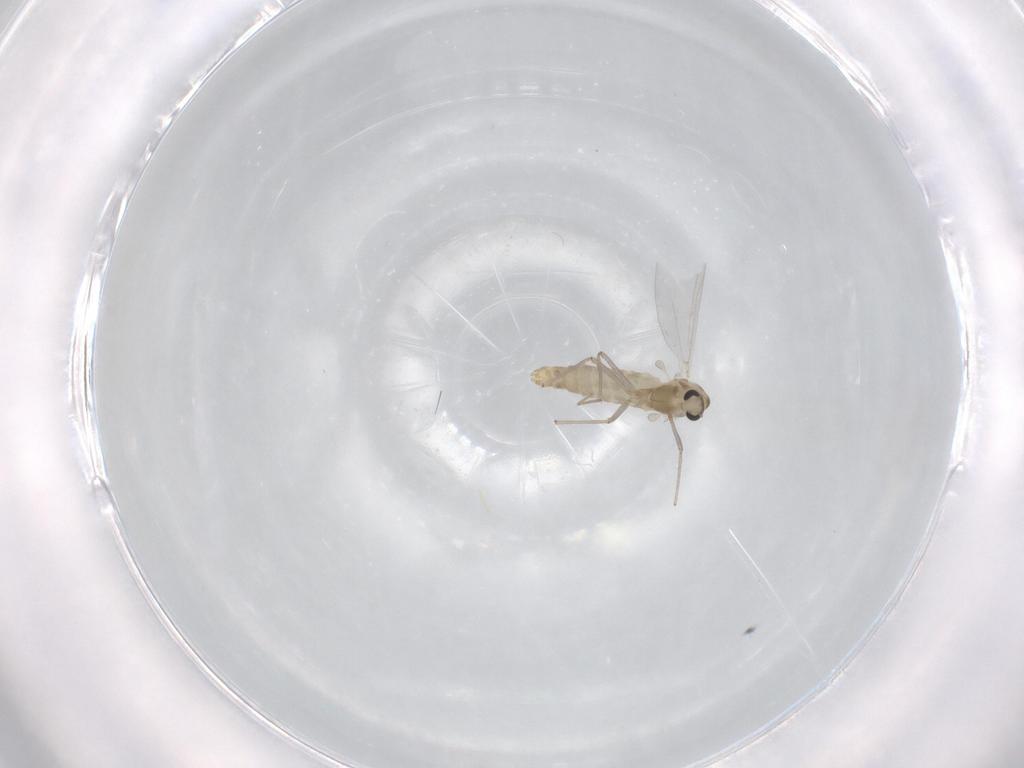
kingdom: Animalia
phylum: Arthropoda
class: Insecta
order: Diptera
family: Chironomidae
